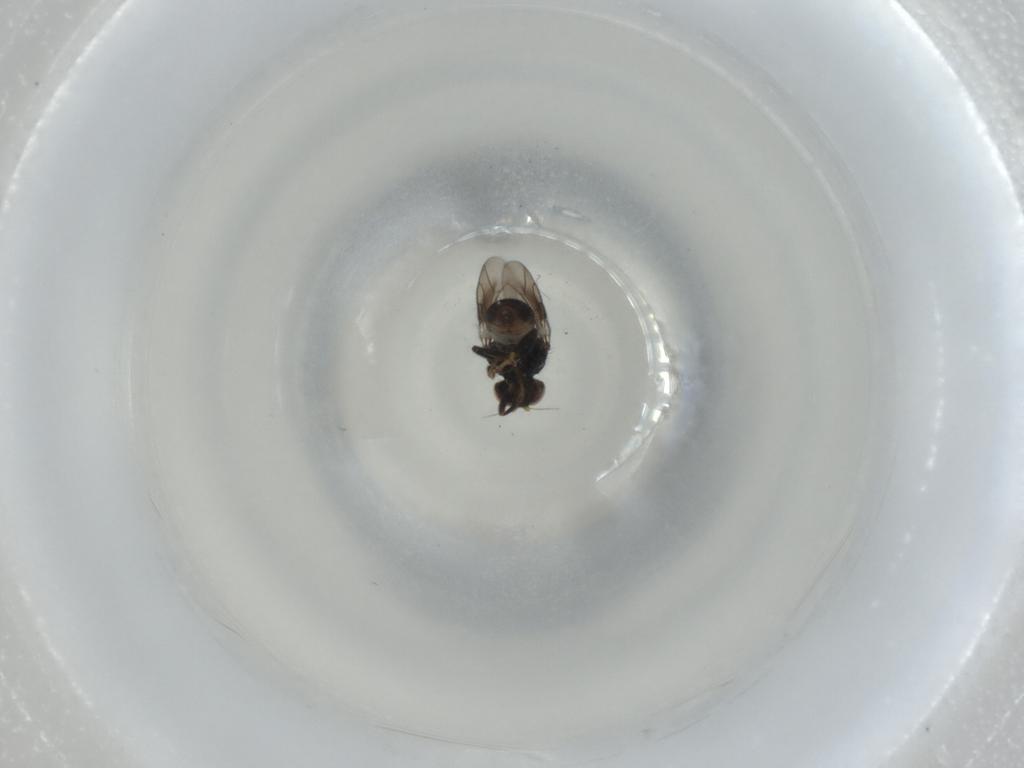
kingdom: Animalia
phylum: Arthropoda
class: Insecta
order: Diptera
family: Chloropidae
